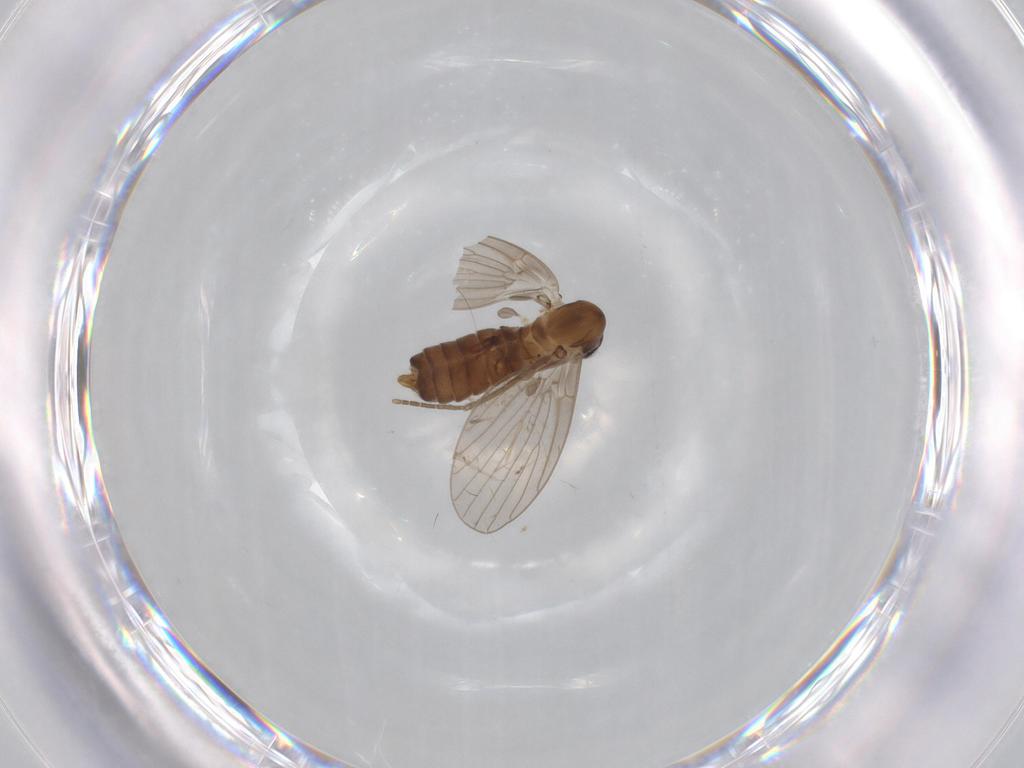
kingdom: Animalia
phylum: Arthropoda
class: Insecta
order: Diptera
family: Psychodidae
